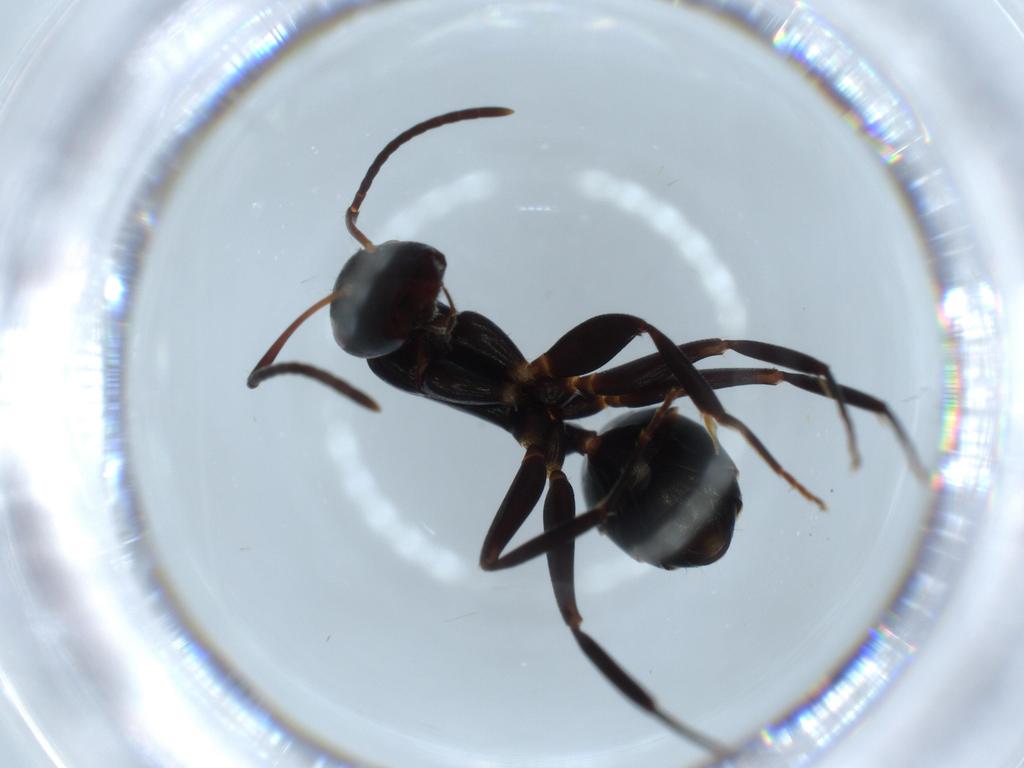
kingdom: Animalia
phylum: Arthropoda
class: Insecta
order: Hymenoptera
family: Formicidae
